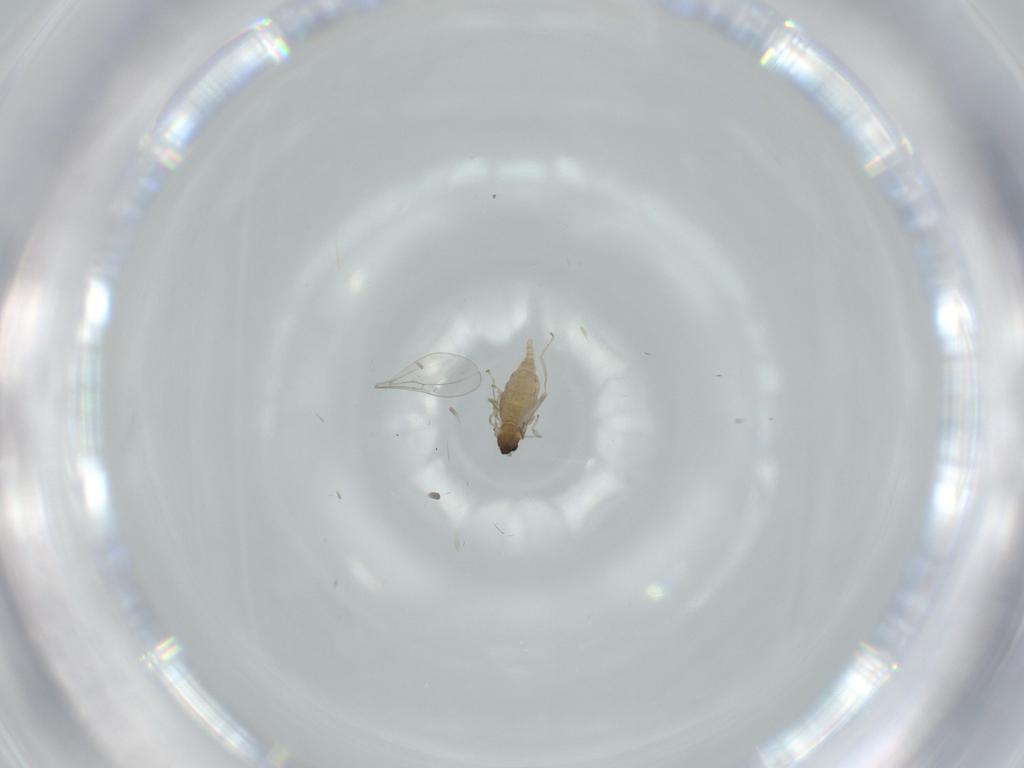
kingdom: Animalia
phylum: Arthropoda
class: Insecta
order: Diptera
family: Cecidomyiidae
